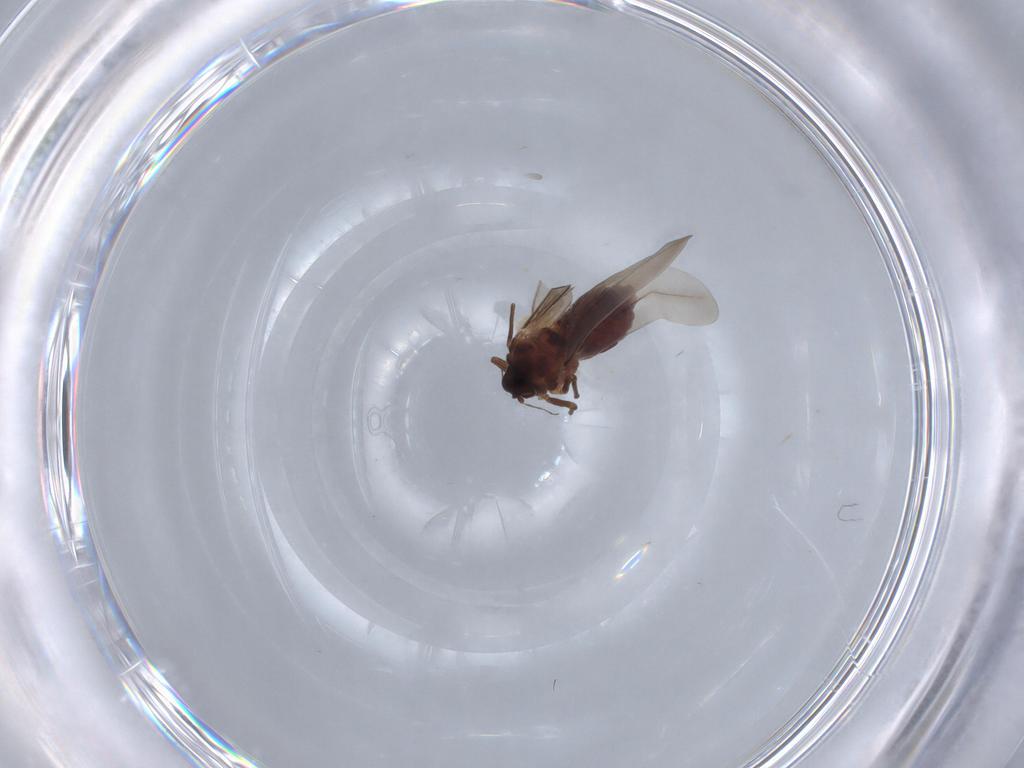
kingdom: Animalia
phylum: Arthropoda
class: Insecta
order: Hemiptera
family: Aleyrodidae
